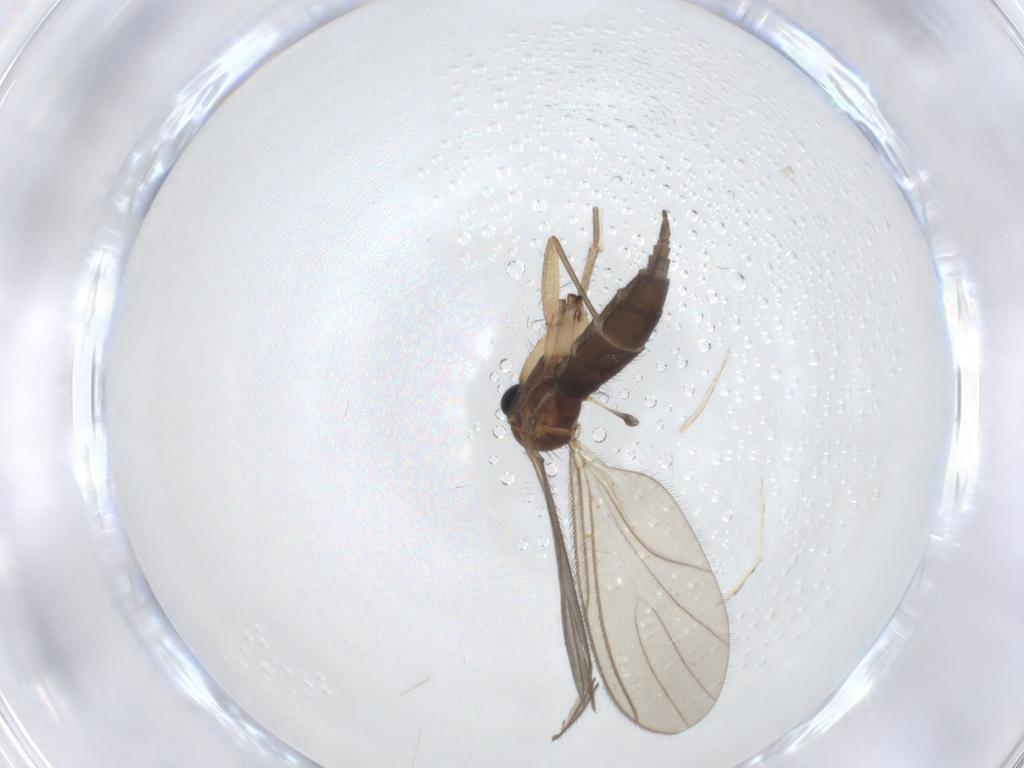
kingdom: Animalia
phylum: Arthropoda
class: Insecta
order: Diptera
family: Sciaridae
